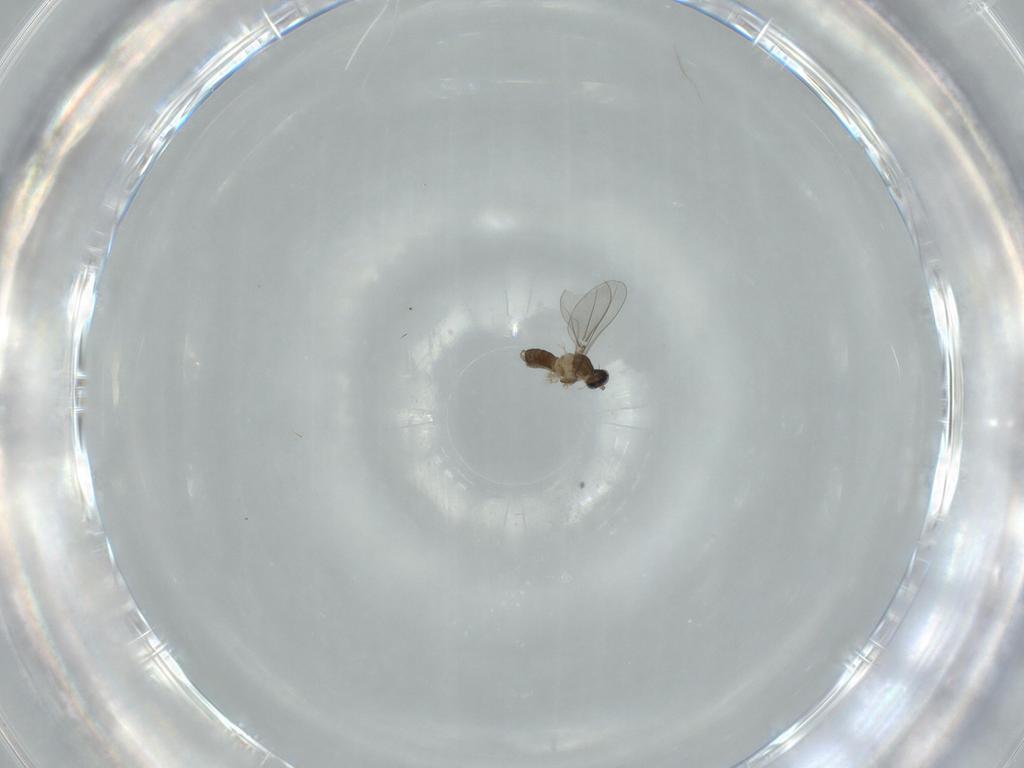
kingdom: Animalia
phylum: Arthropoda
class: Insecta
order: Diptera
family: Cecidomyiidae
